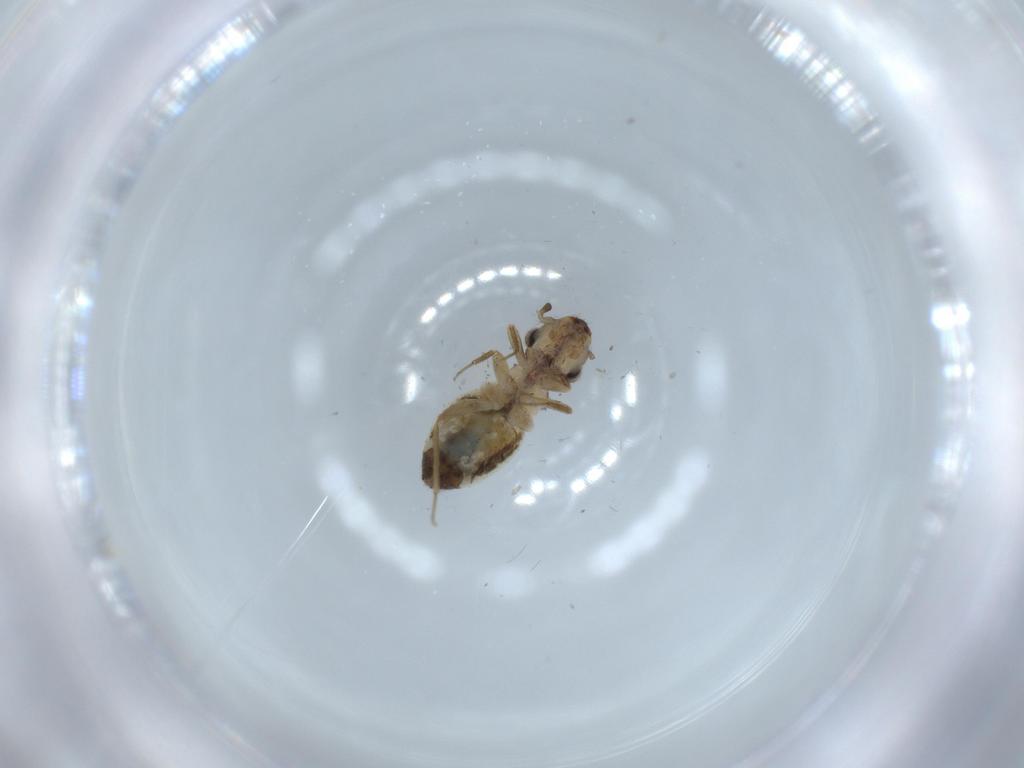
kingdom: Animalia
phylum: Arthropoda
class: Insecta
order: Psocodea
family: Lepidopsocidae
